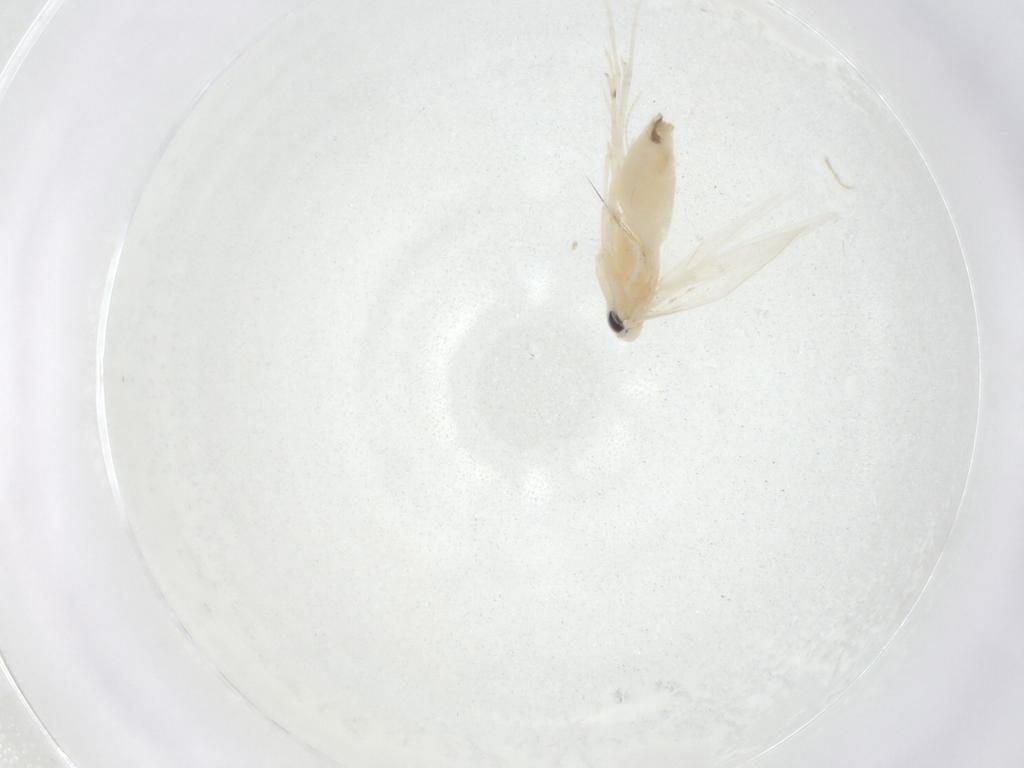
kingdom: Animalia
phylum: Arthropoda
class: Insecta
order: Lepidoptera
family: Gracillariidae
